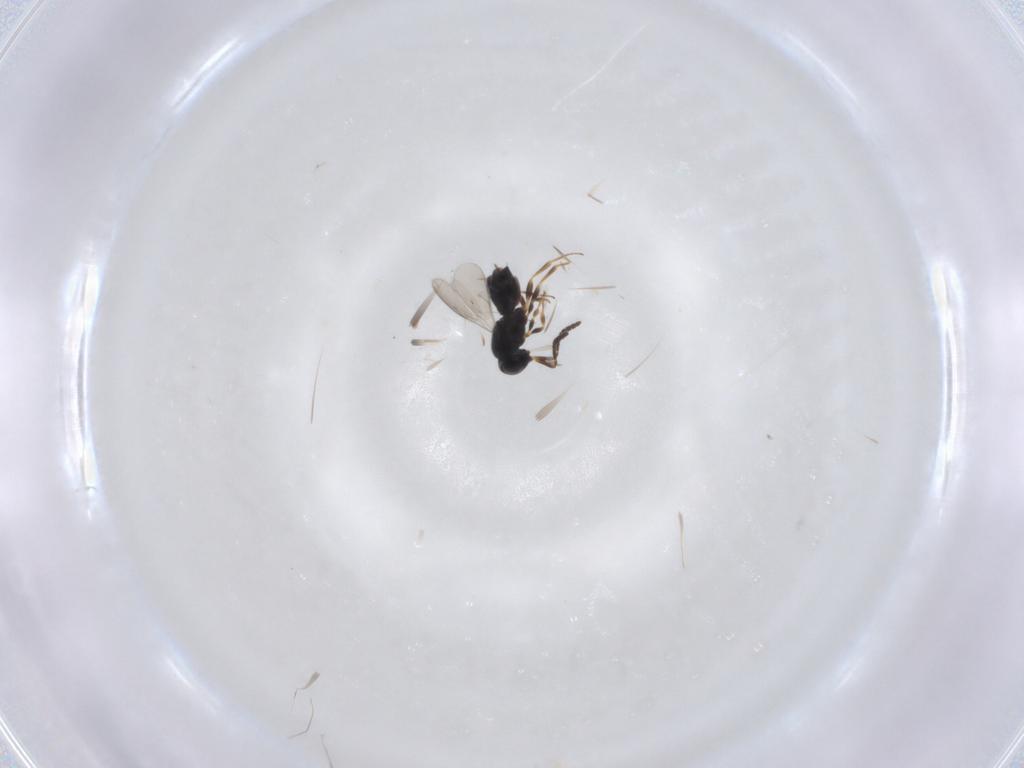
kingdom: Animalia
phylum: Arthropoda
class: Insecta
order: Hymenoptera
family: Scelionidae
